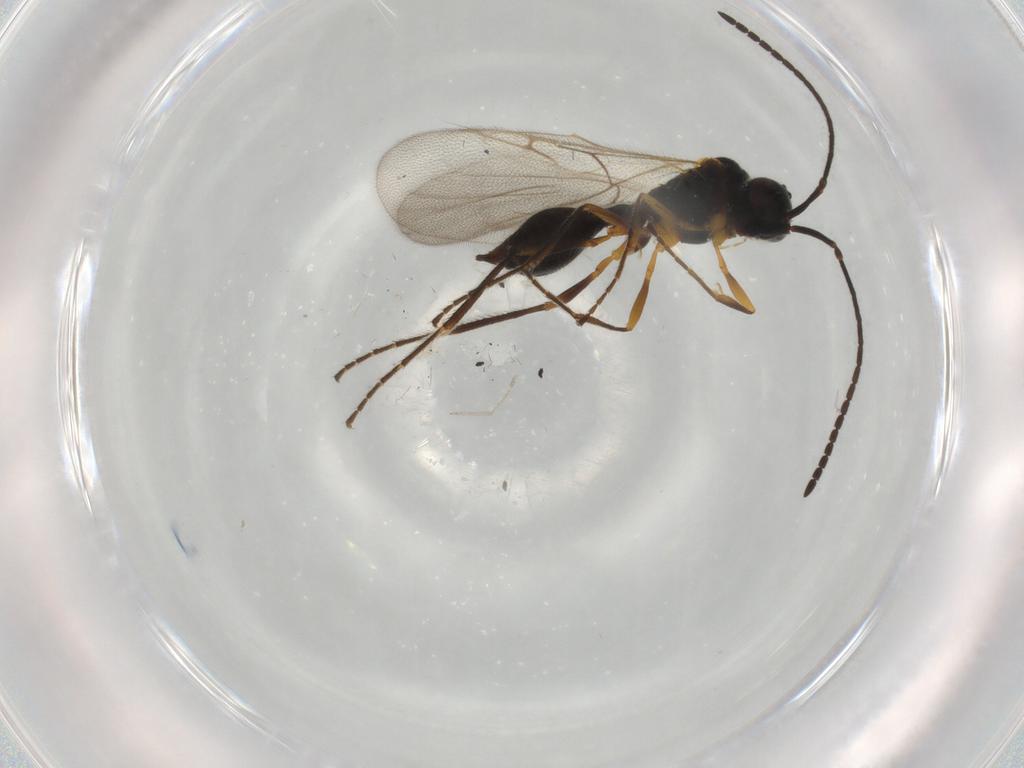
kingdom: Animalia
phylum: Arthropoda
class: Insecta
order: Hymenoptera
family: Diapriidae
